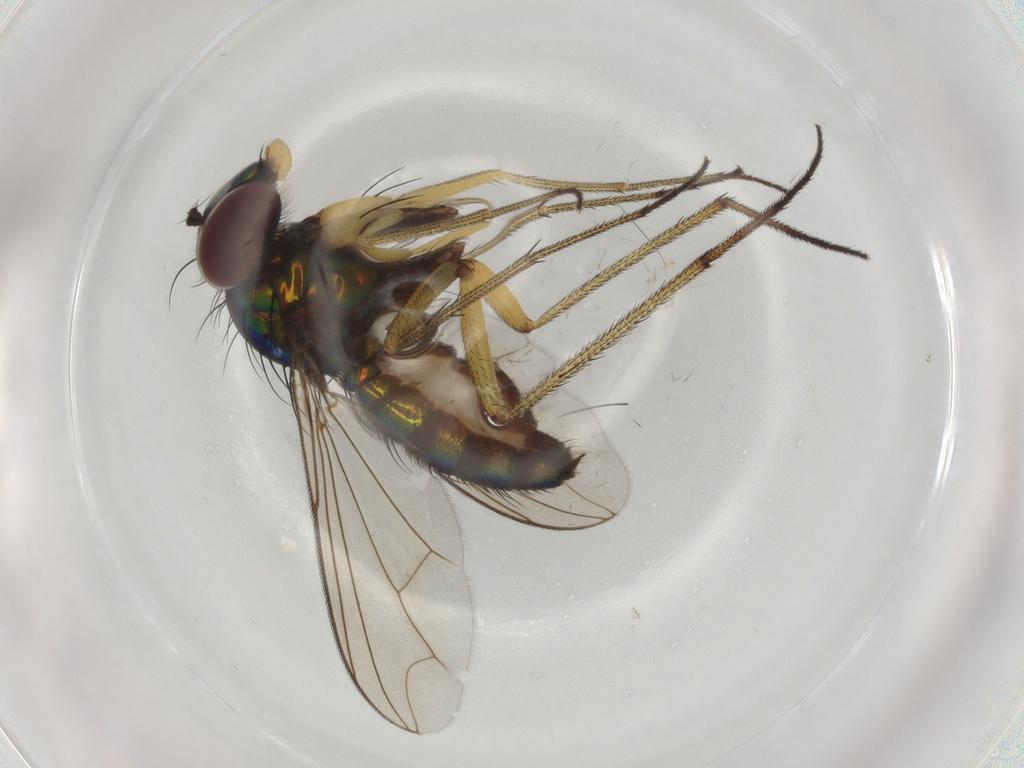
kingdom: Animalia
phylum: Arthropoda
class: Insecta
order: Diptera
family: Dolichopodidae
